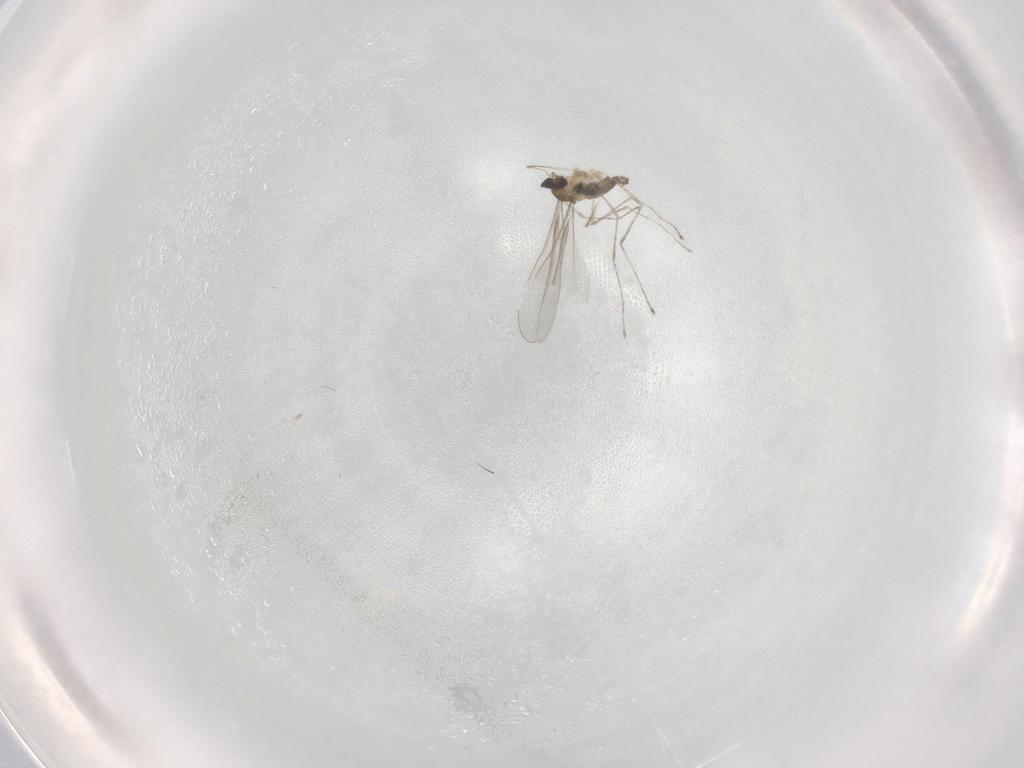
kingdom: Animalia
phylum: Arthropoda
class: Insecta
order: Diptera
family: Cecidomyiidae
